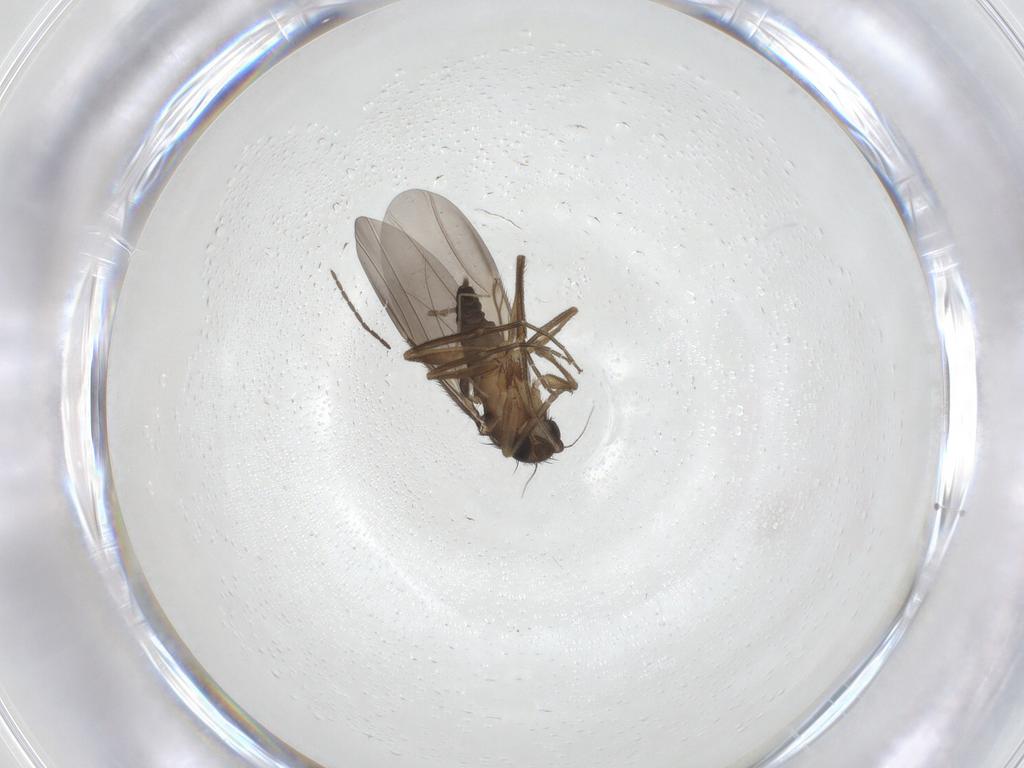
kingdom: Animalia
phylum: Arthropoda
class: Insecta
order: Diptera
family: Phoridae
